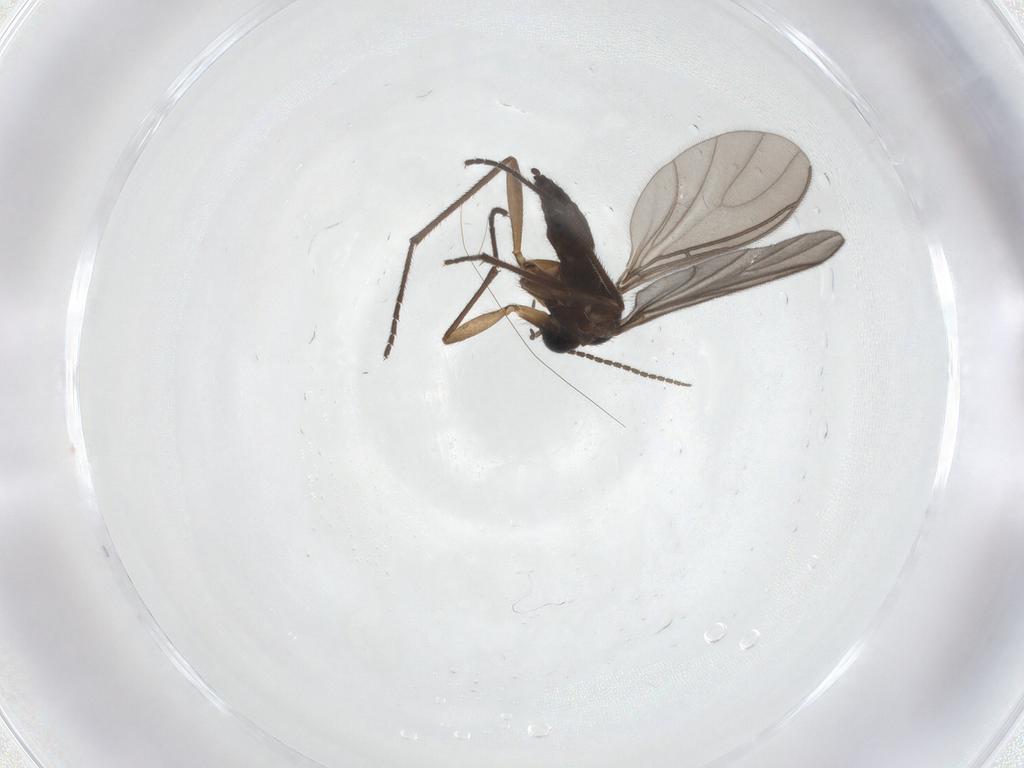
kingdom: Animalia
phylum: Arthropoda
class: Insecta
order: Diptera
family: Sciaridae
